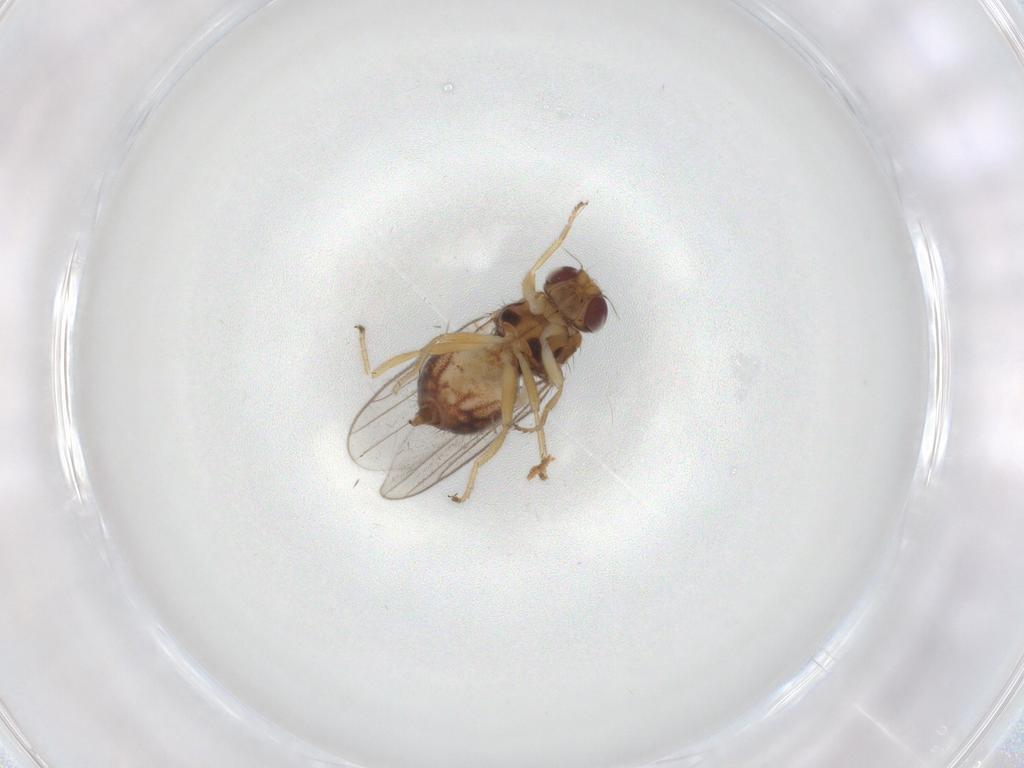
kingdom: Animalia
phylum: Arthropoda
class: Insecta
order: Diptera
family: Chloropidae
